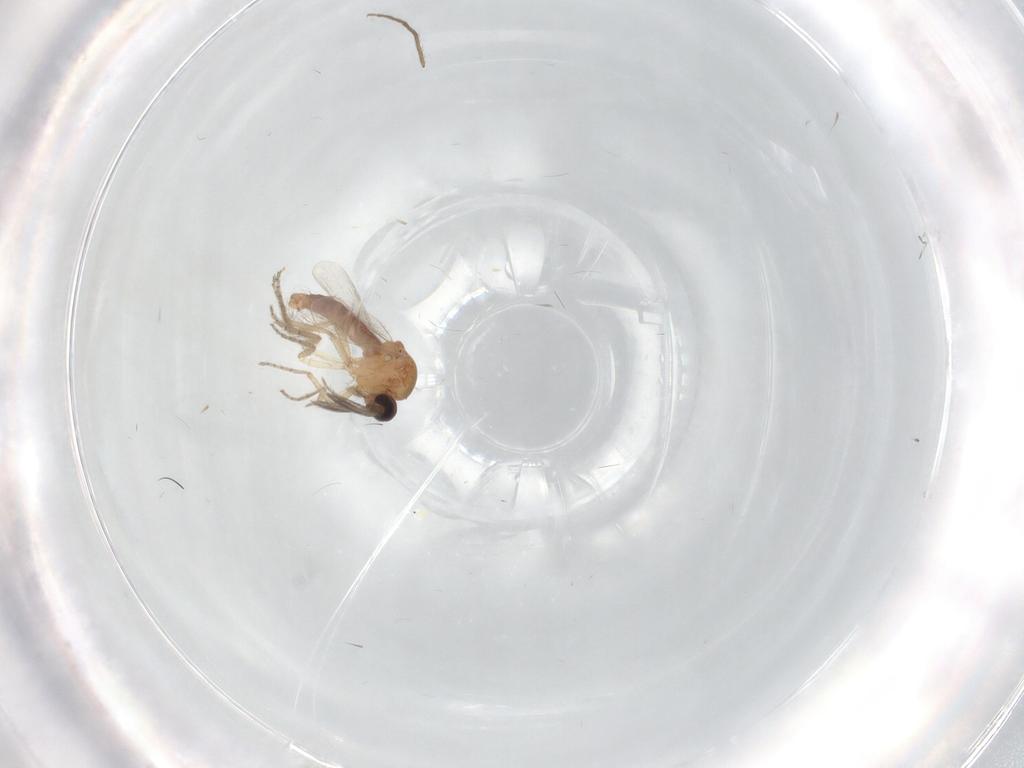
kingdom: Animalia
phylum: Arthropoda
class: Insecta
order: Diptera
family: Ceratopogonidae
